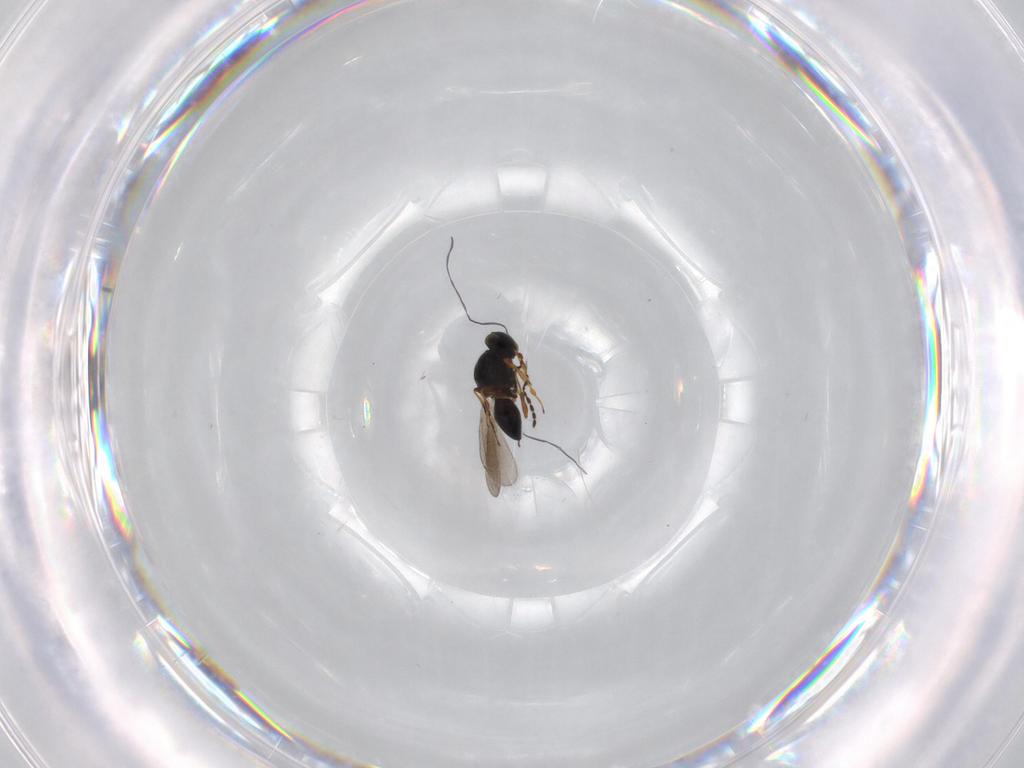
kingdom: Animalia
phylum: Arthropoda
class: Insecta
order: Hymenoptera
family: Platygastridae
